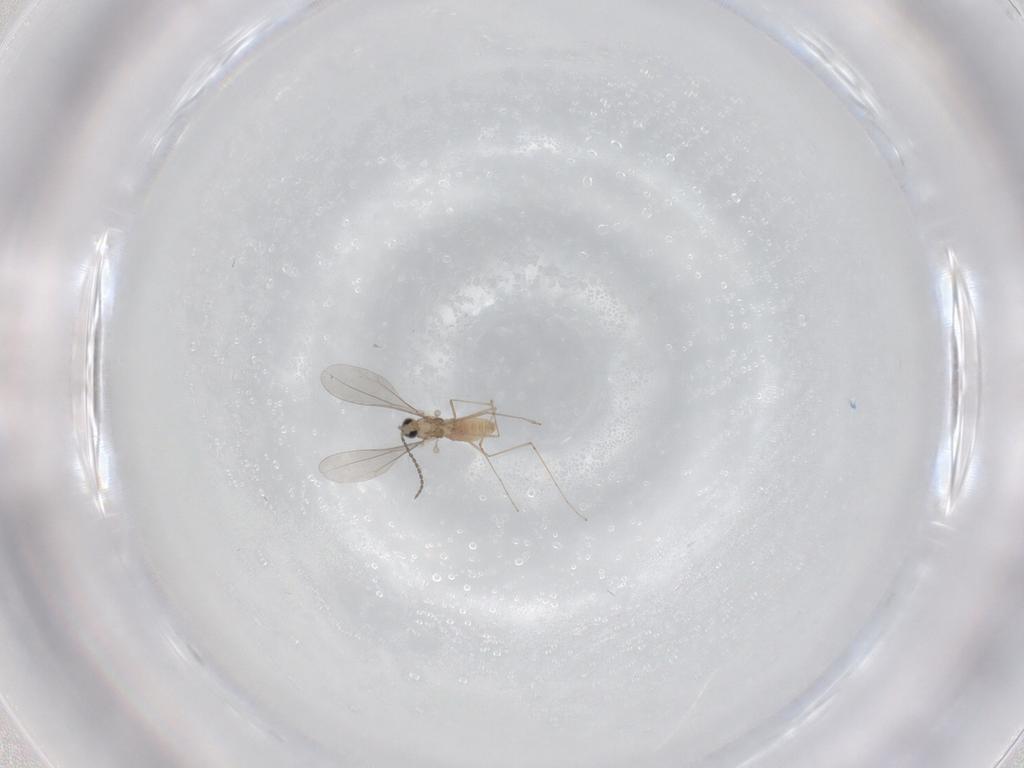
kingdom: Animalia
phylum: Arthropoda
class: Insecta
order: Diptera
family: Cecidomyiidae
